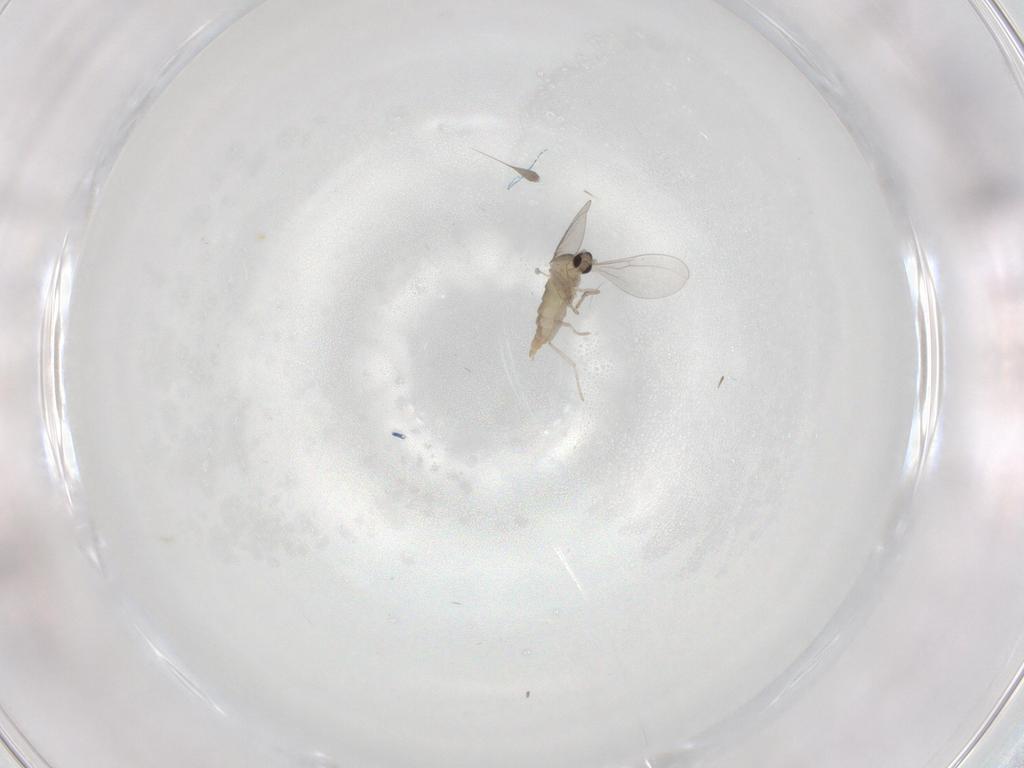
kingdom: Animalia
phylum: Arthropoda
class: Insecta
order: Diptera
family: Cecidomyiidae
